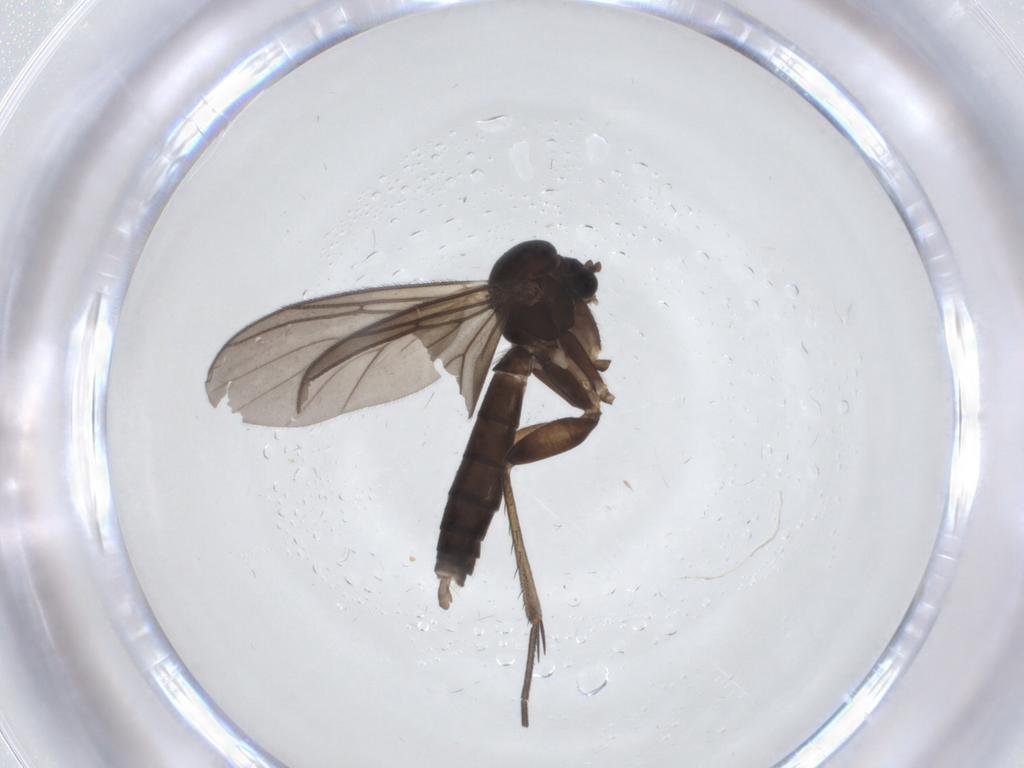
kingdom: Animalia
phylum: Arthropoda
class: Insecta
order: Diptera
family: Mycetophilidae
